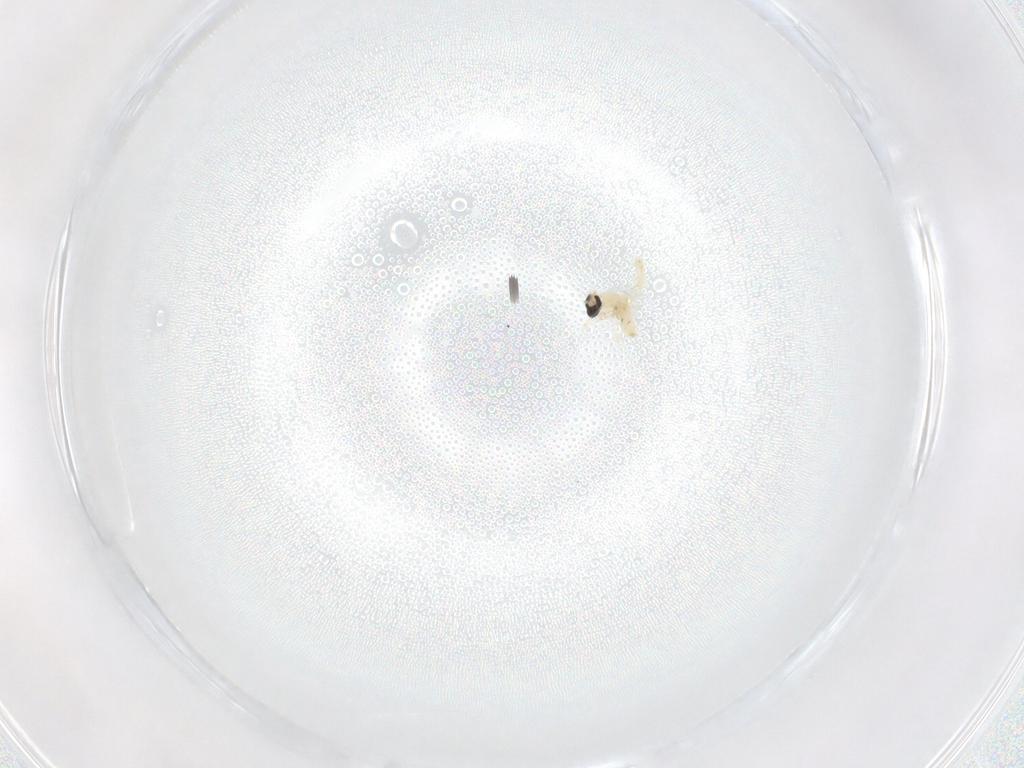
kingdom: Animalia
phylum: Arthropoda
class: Insecta
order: Diptera
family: Cecidomyiidae
